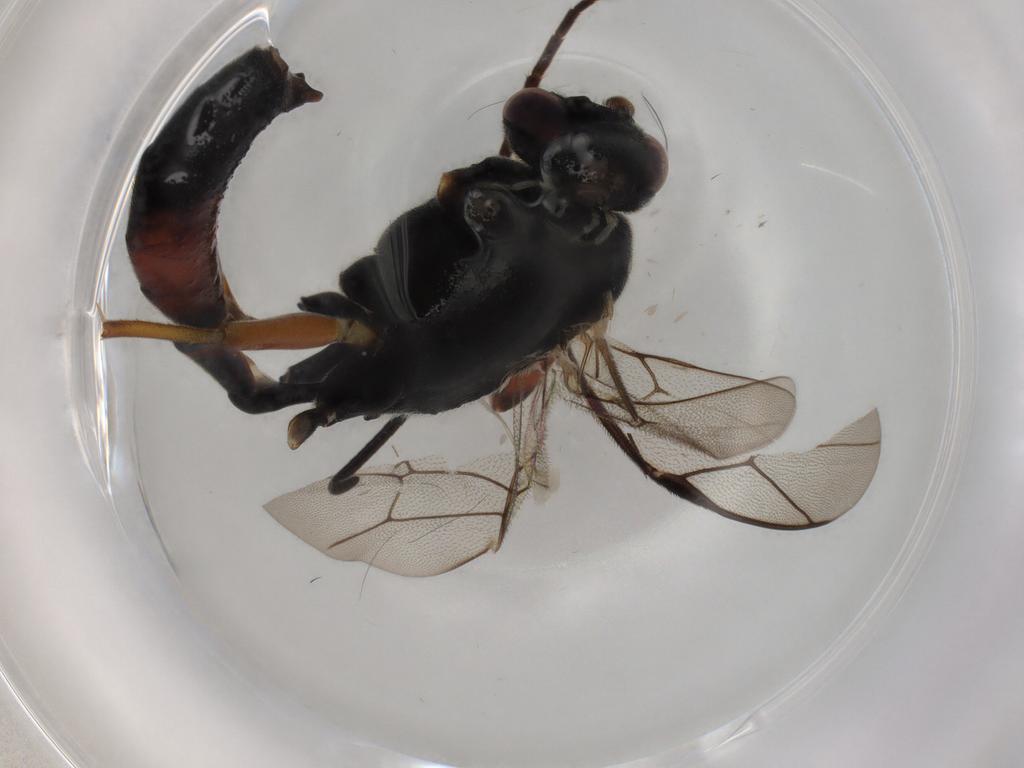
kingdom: Animalia
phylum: Arthropoda
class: Insecta
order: Hymenoptera
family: Ichneumonidae
